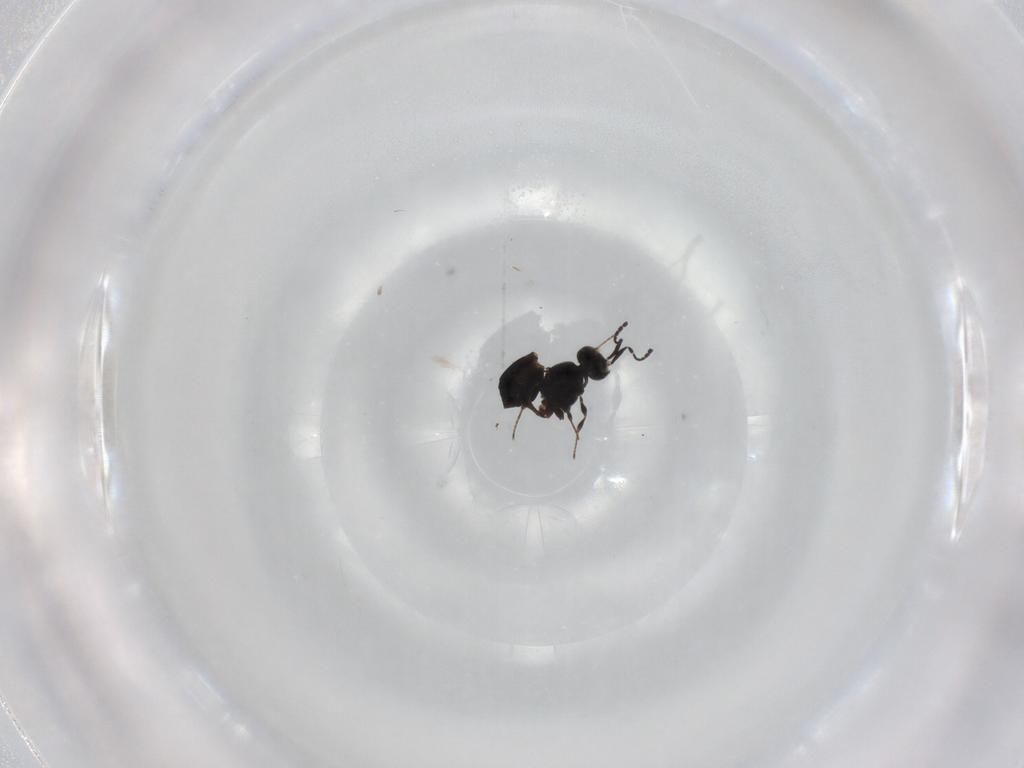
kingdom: Animalia
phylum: Arthropoda
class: Insecta
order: Hymenoptera
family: Platygastridae
